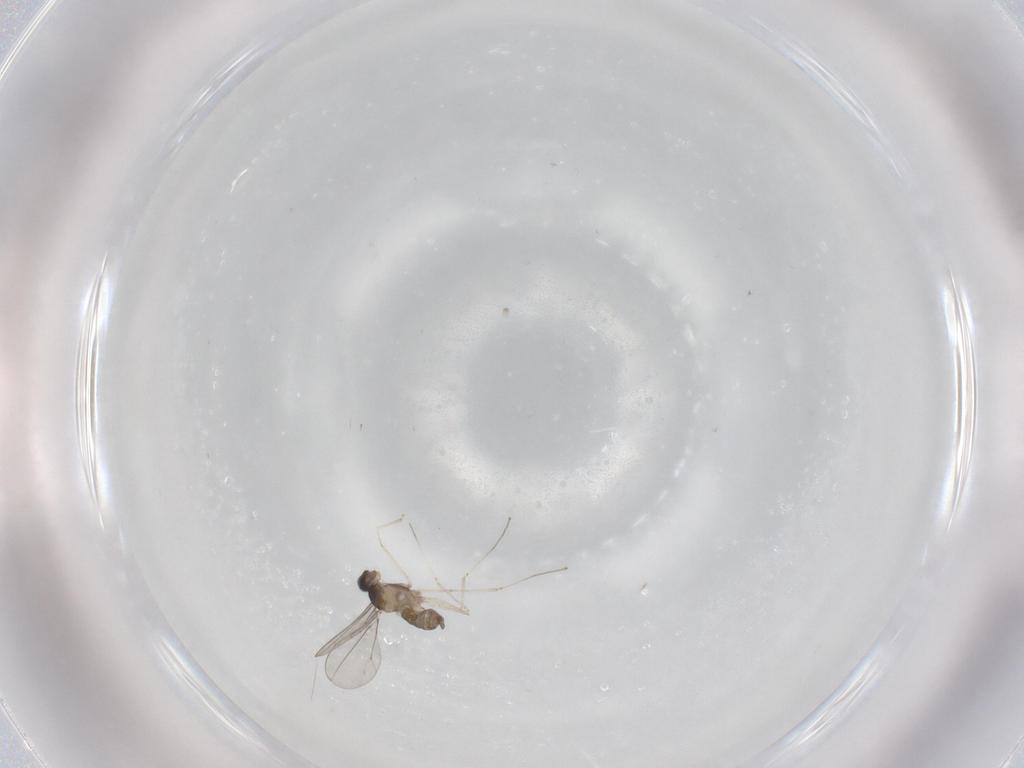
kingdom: Animalia
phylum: Arthropoda
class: Insecta
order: Diptera
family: Cecidomyiidae
